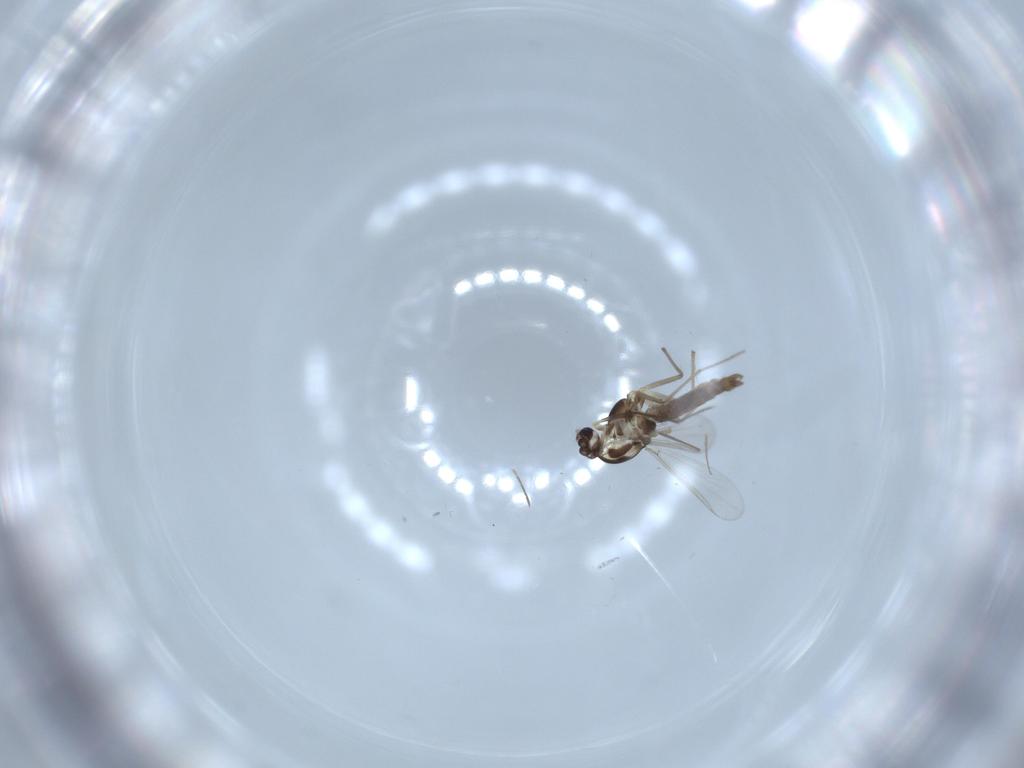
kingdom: Animalia
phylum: Arthropoda
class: Insecta
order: Diptera
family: Chironomidae
